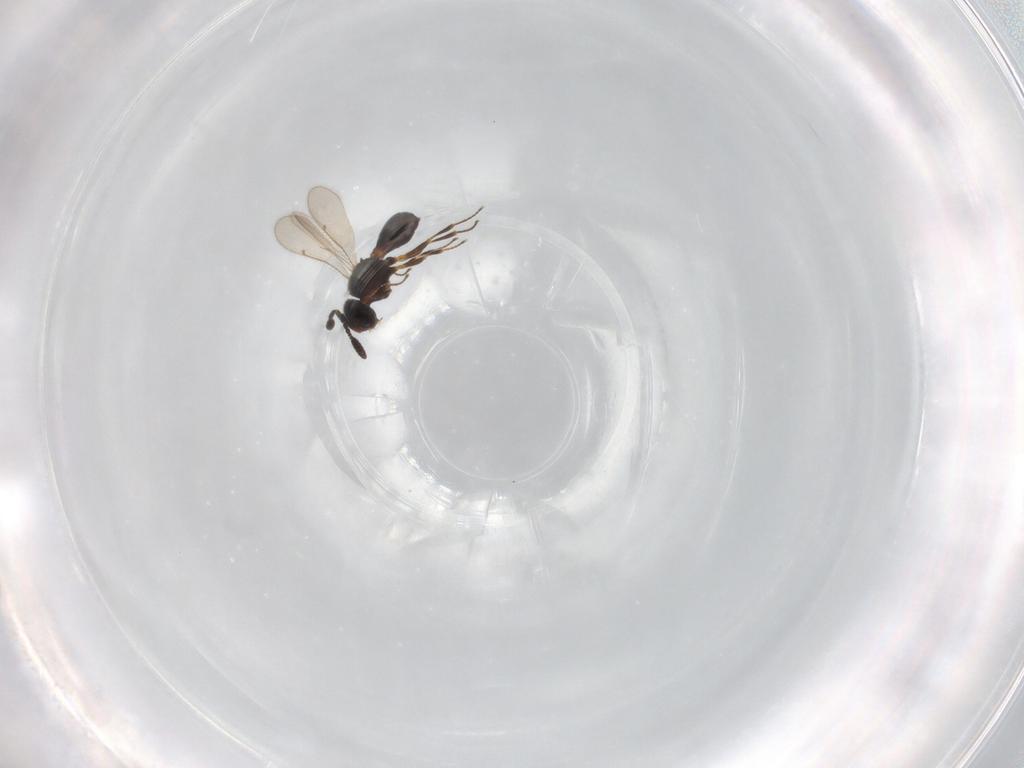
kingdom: Animalia
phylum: Arthropoda
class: Insecta
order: Hymenoptera
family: Scelionidae
